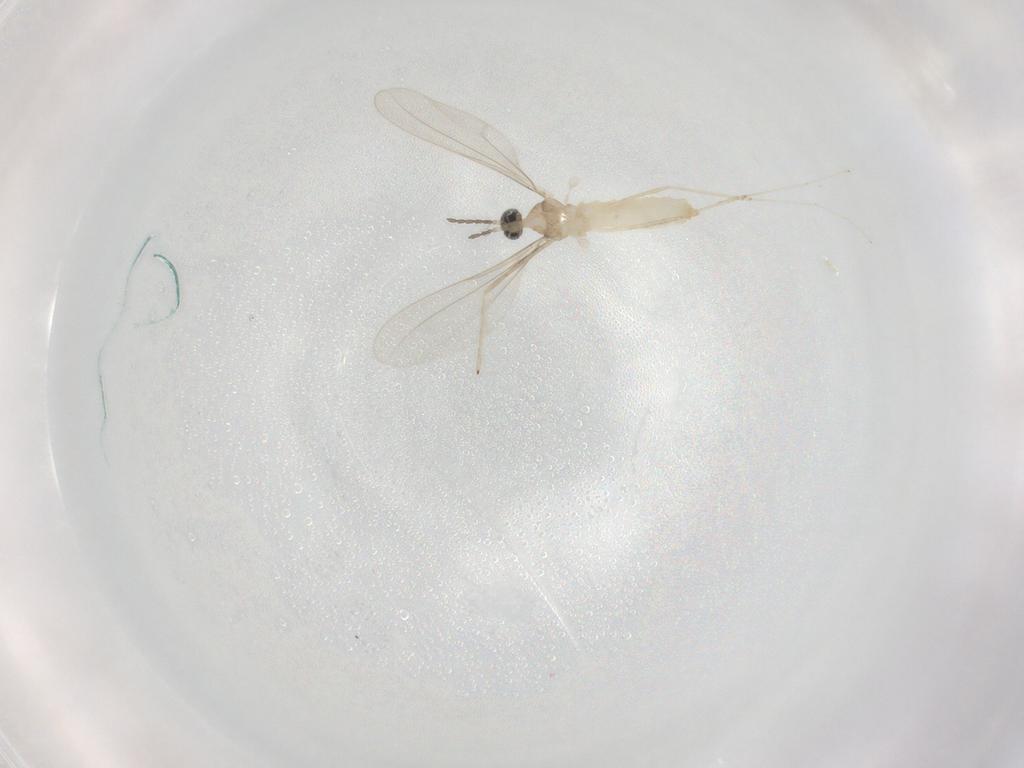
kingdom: Animalia
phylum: Arthropoda
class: Insecta
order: Diptera
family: Cecidomyiidae
